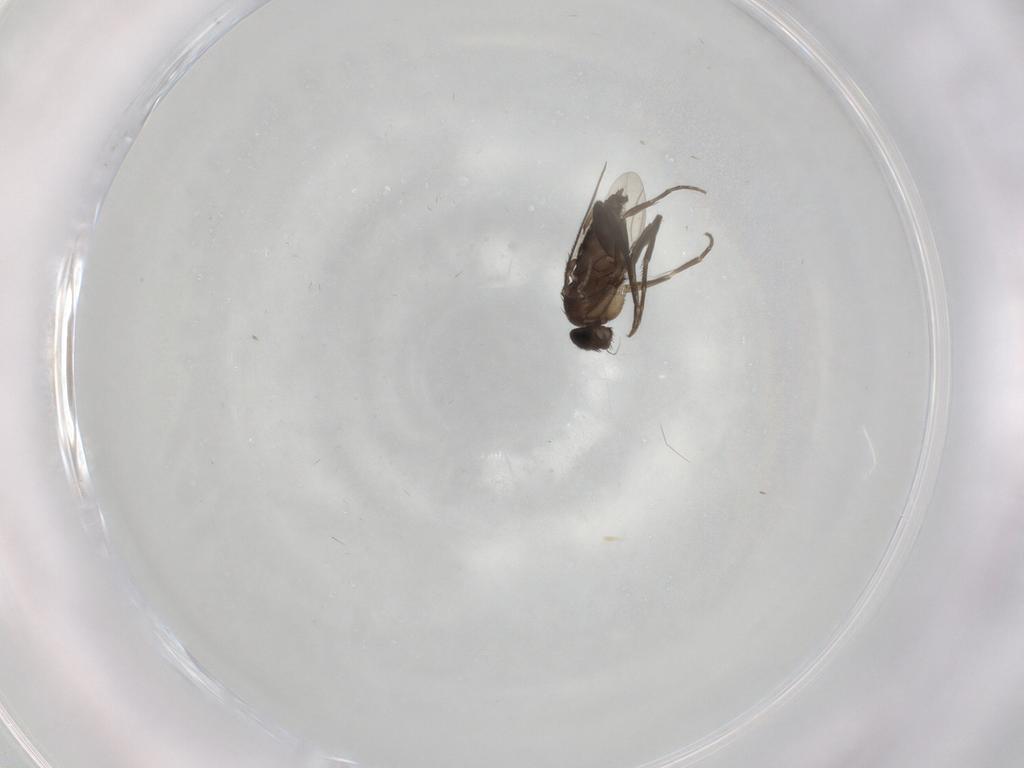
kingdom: Animalia
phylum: Arthropoda
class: Insecta
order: Diptera
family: Phoridae
